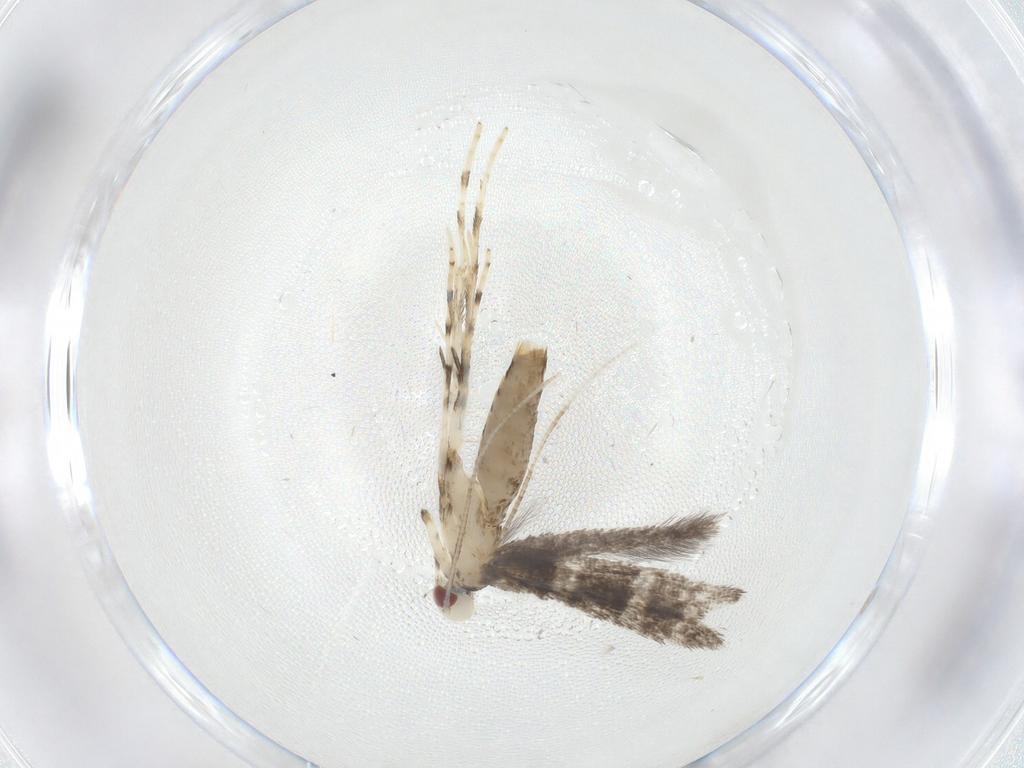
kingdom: Animalia
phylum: Arthropoda
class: Insecta
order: Lepidoptera
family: Gracillariidae
